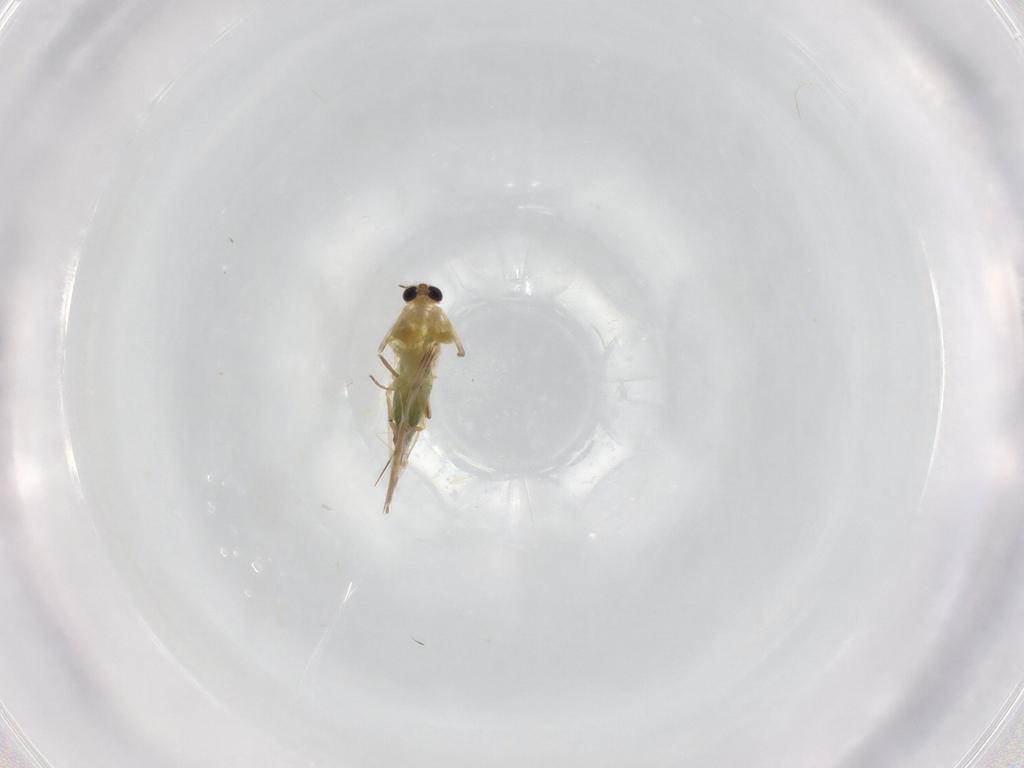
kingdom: Animalia
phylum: Arthropoda
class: Insecta
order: Diptera
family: Chironomidae
